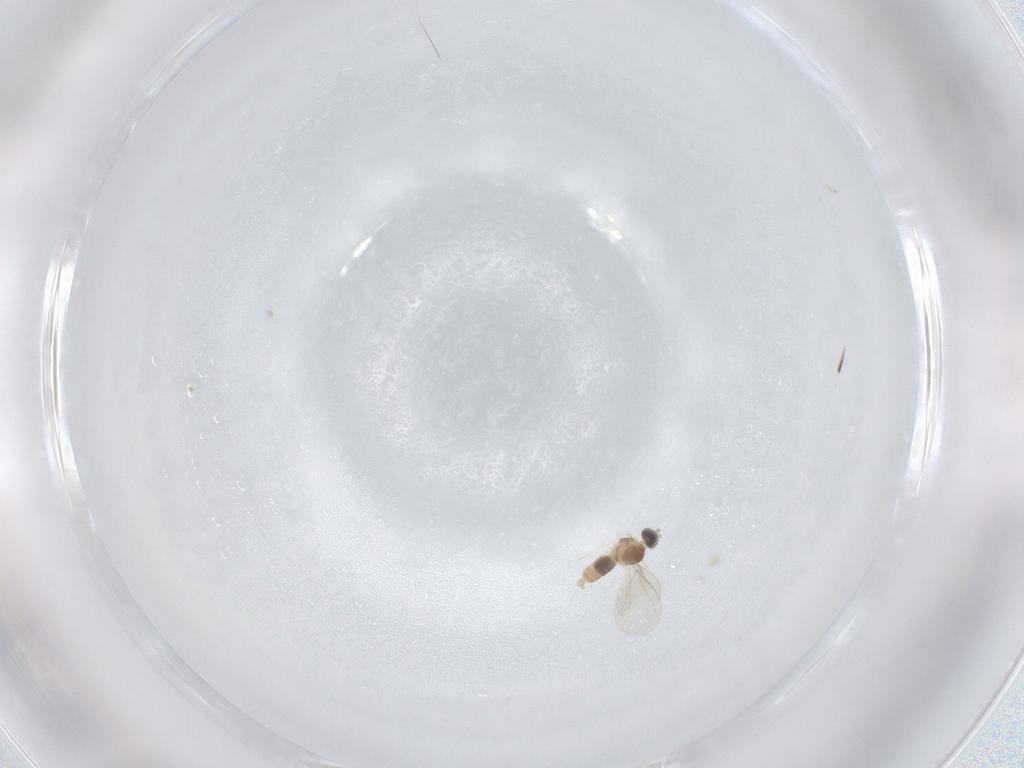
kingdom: Animalia
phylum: Arthropoda
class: Insecta
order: Diptera
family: Cecidomyiidae
